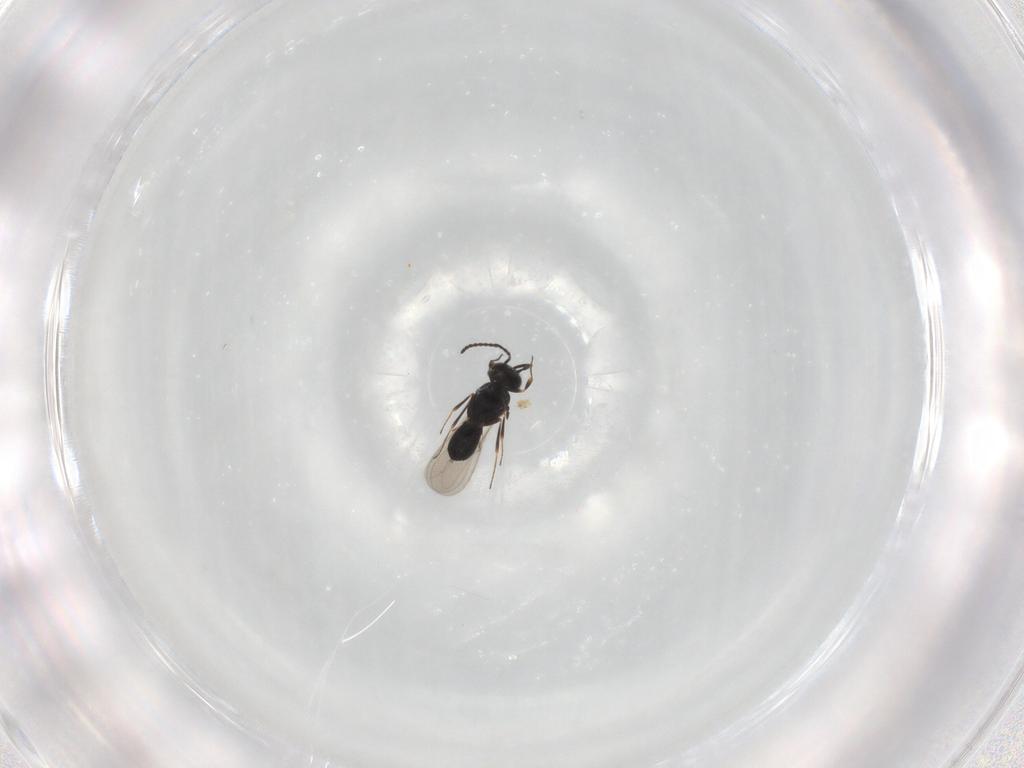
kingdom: Animalia
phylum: Arthropoda
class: Insecta
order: Hymenoptera
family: Scelionidae
